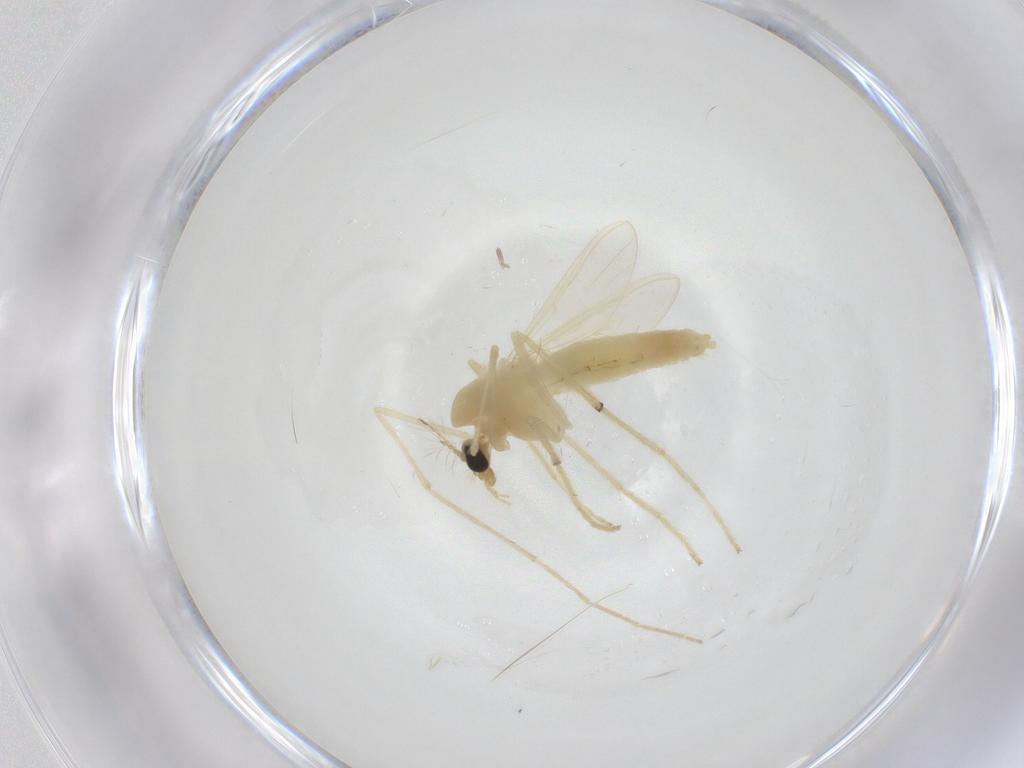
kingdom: Animalia
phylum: Arthropoda
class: Insecta
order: Diptera
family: Chironomidae
